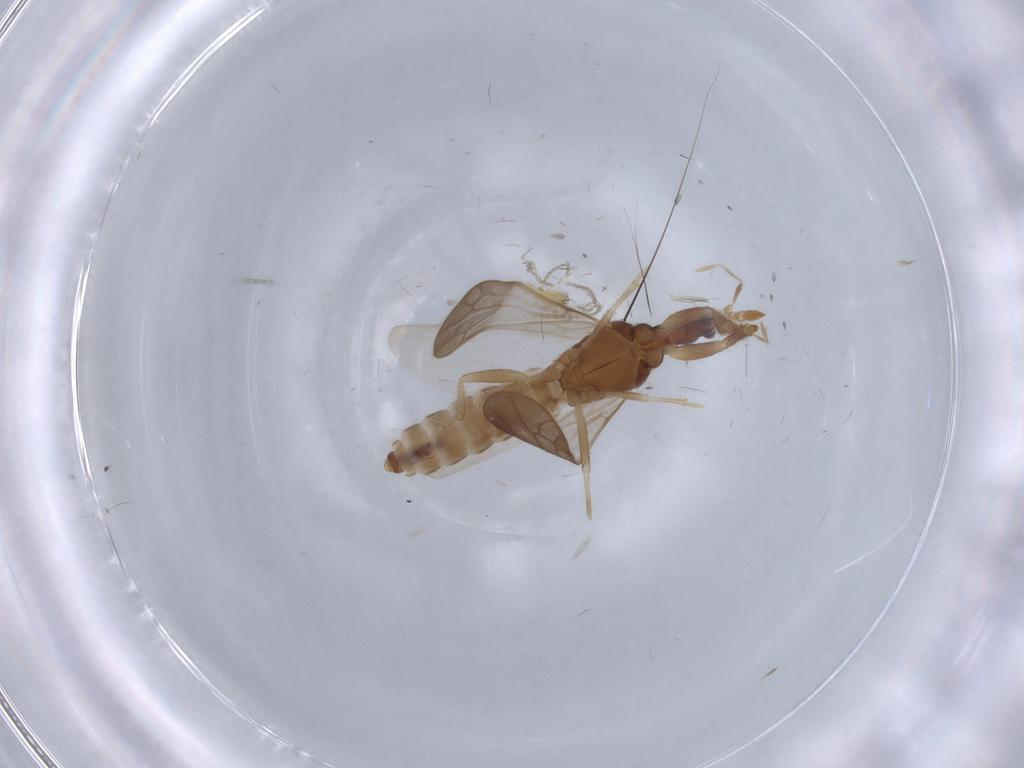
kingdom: Animalia
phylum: Arthropoda
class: Insecta
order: Hemiptera
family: Enicocephalidae
